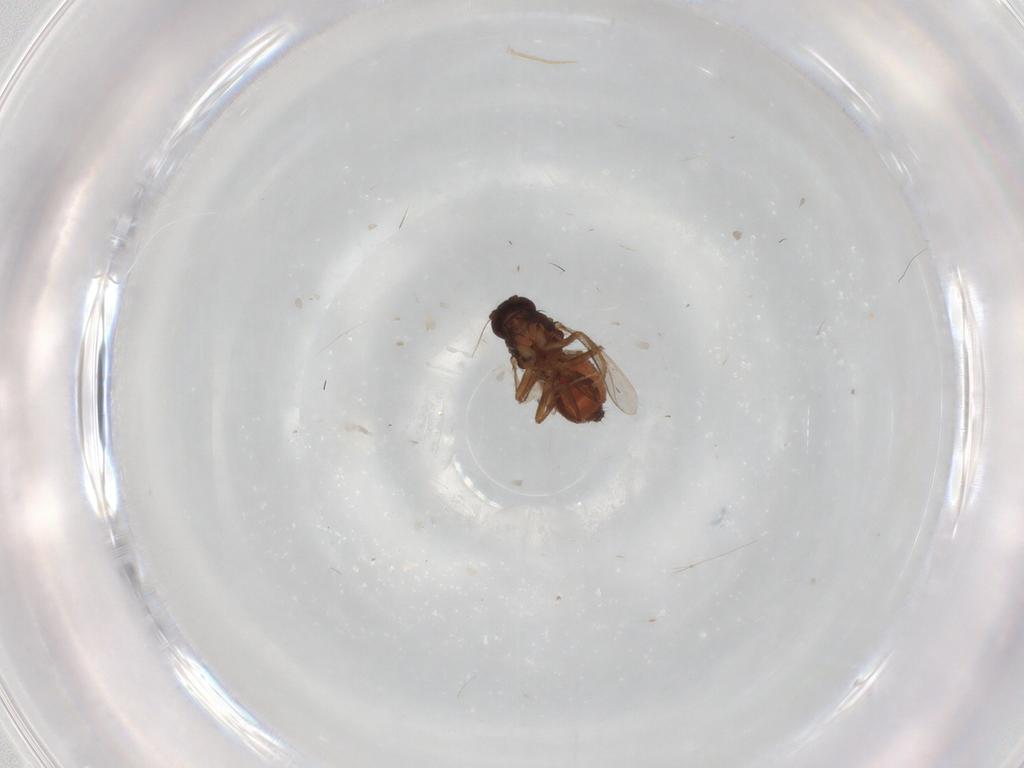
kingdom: Animalia
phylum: Arthropoda
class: Insecta
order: Diptera
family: Sphaeroceridae
